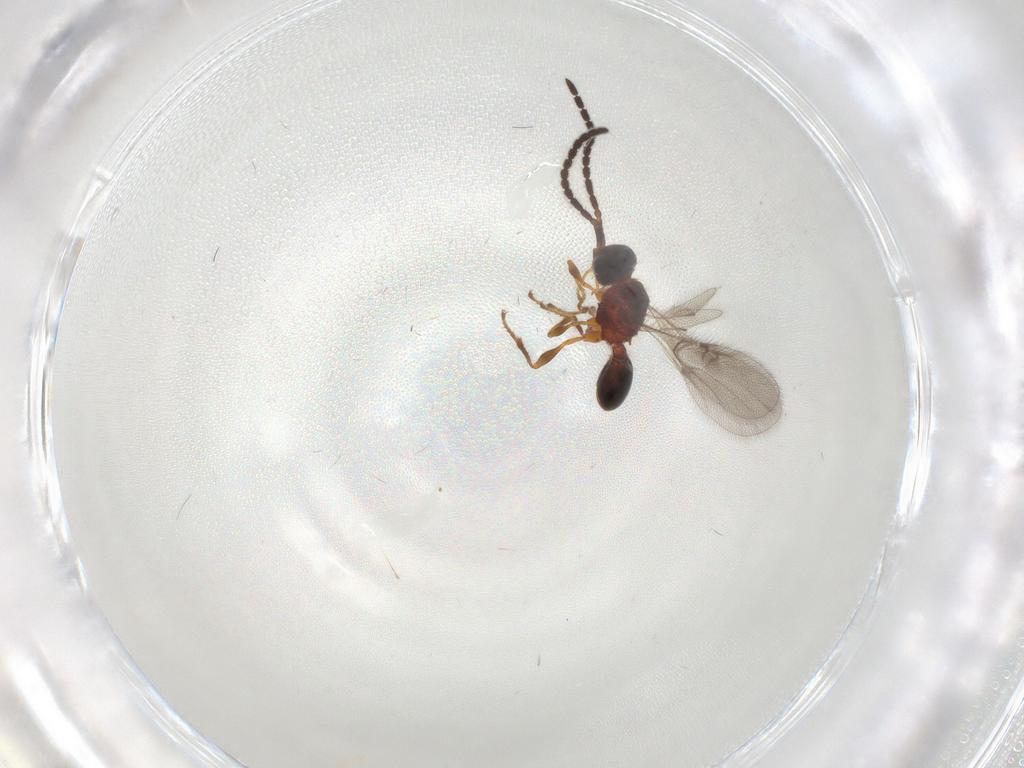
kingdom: Animalia
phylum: Arthropoda
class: Insecta
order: Hymenoptera
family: Diapriidae
